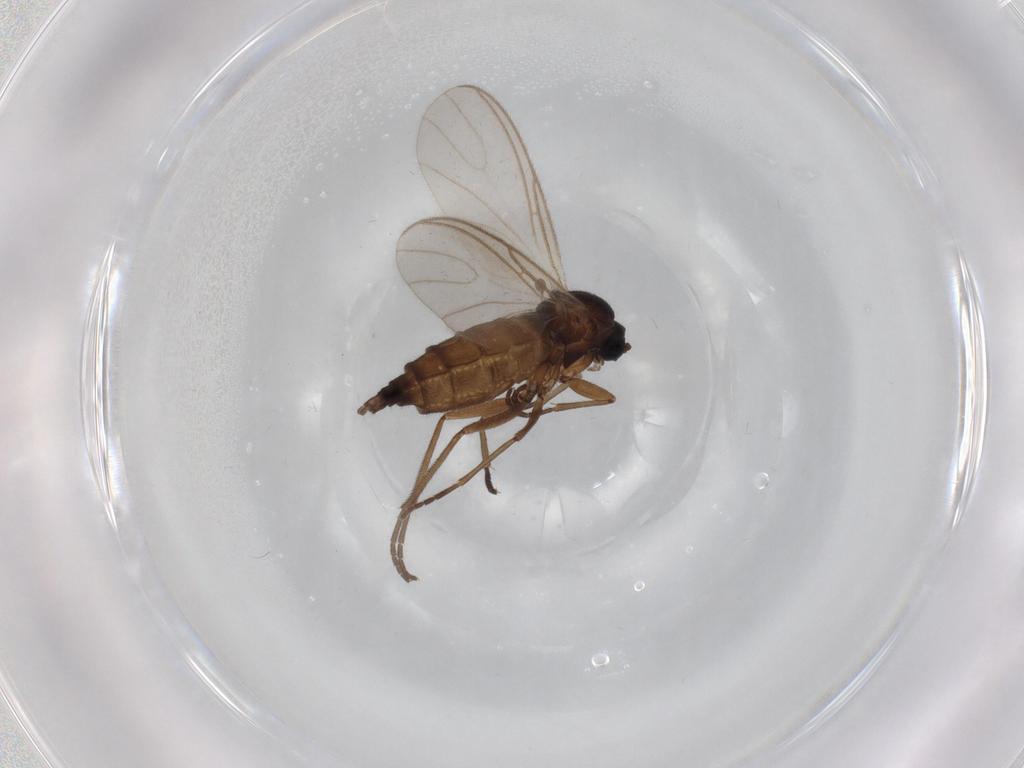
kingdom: Animalia
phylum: Arthropoda
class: Insecta
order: Diptera
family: Sciaridae
